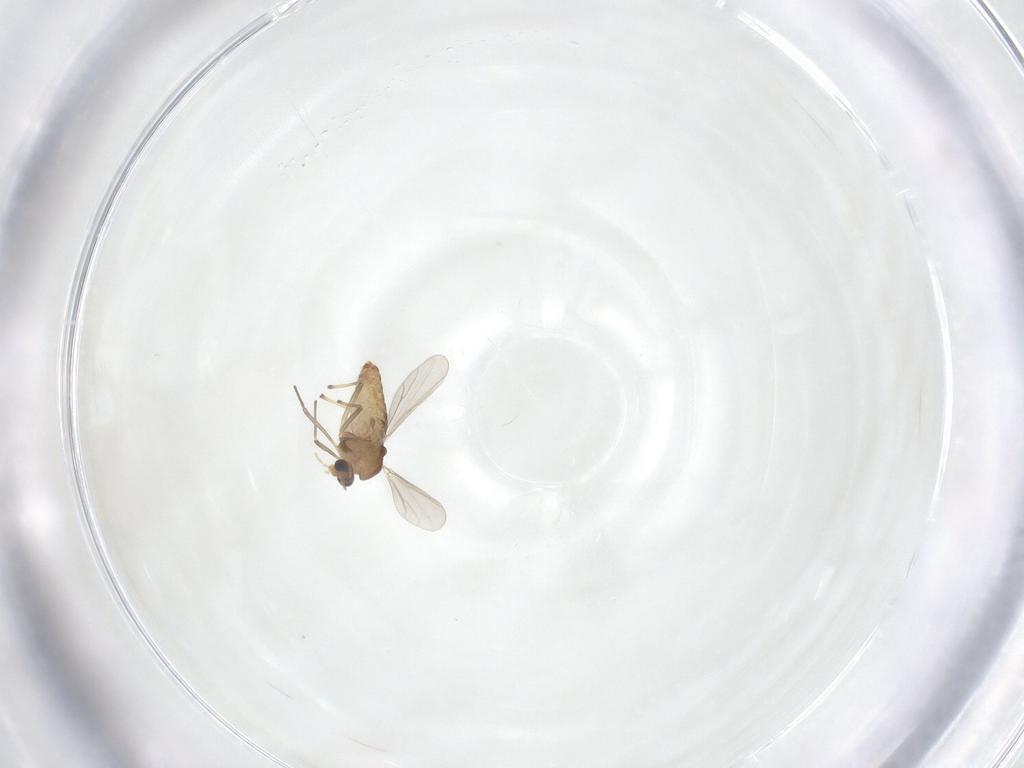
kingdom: Animalia
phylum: Arthropoda
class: Insecta
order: Diptera
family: Chironomidae
